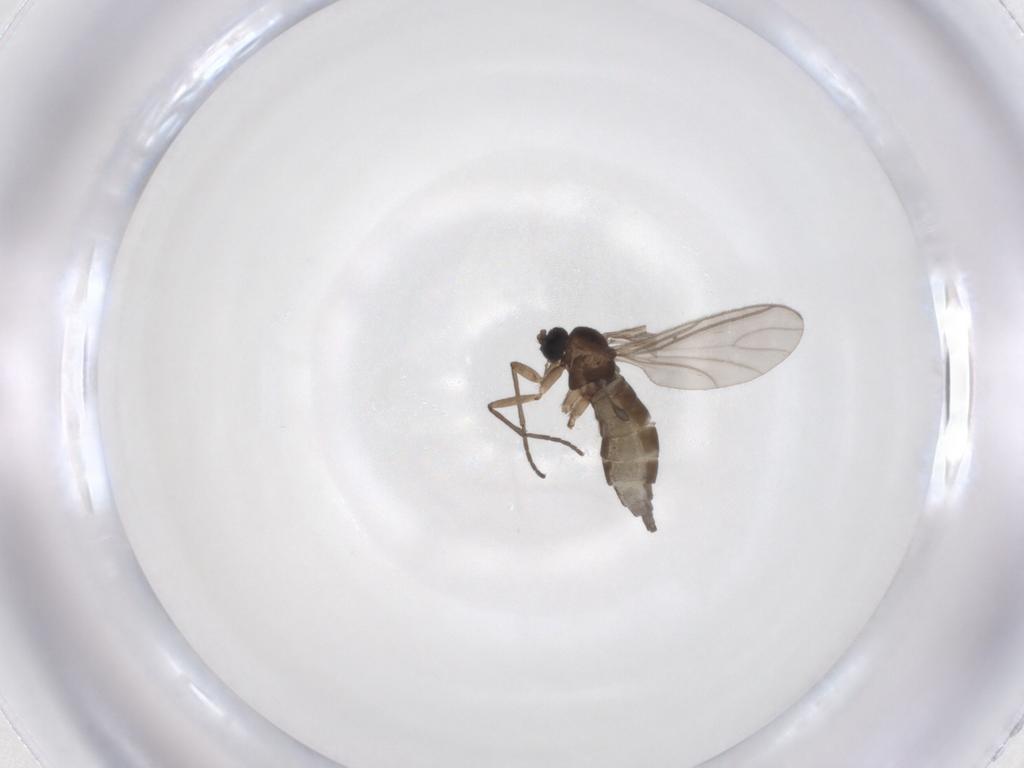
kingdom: Animalia
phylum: Arthropoda
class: Insecta
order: Diptera
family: Sciaridae
